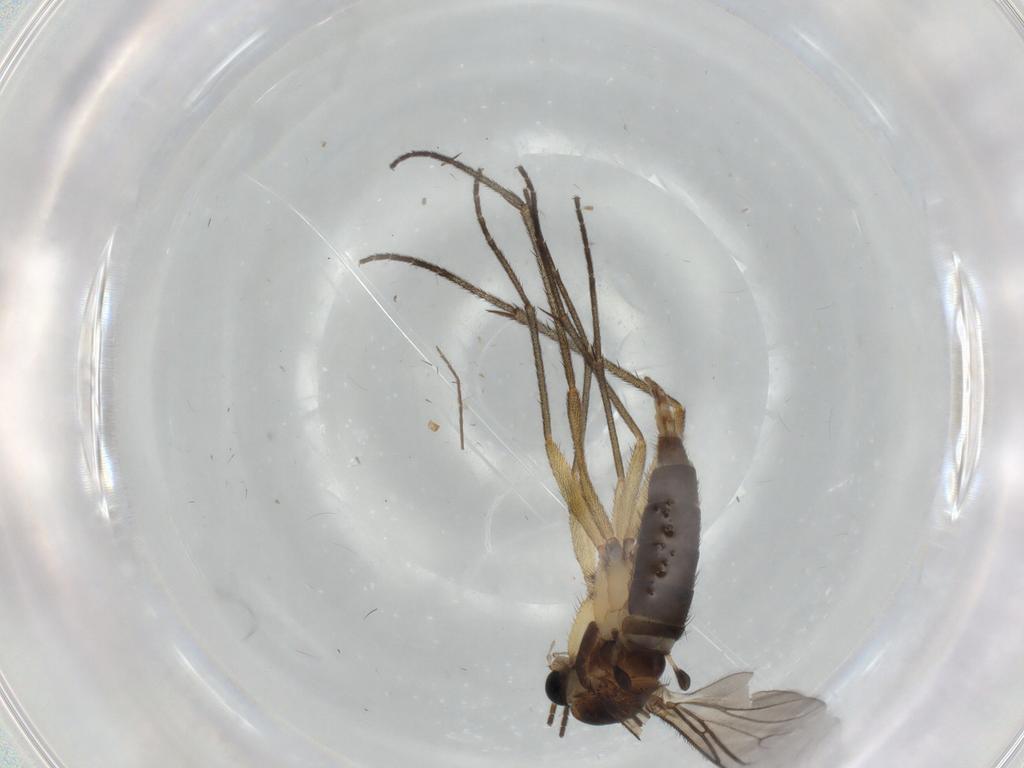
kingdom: Animalia
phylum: Arthropoda
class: Insecta
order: Diptera
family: Sciaridae
